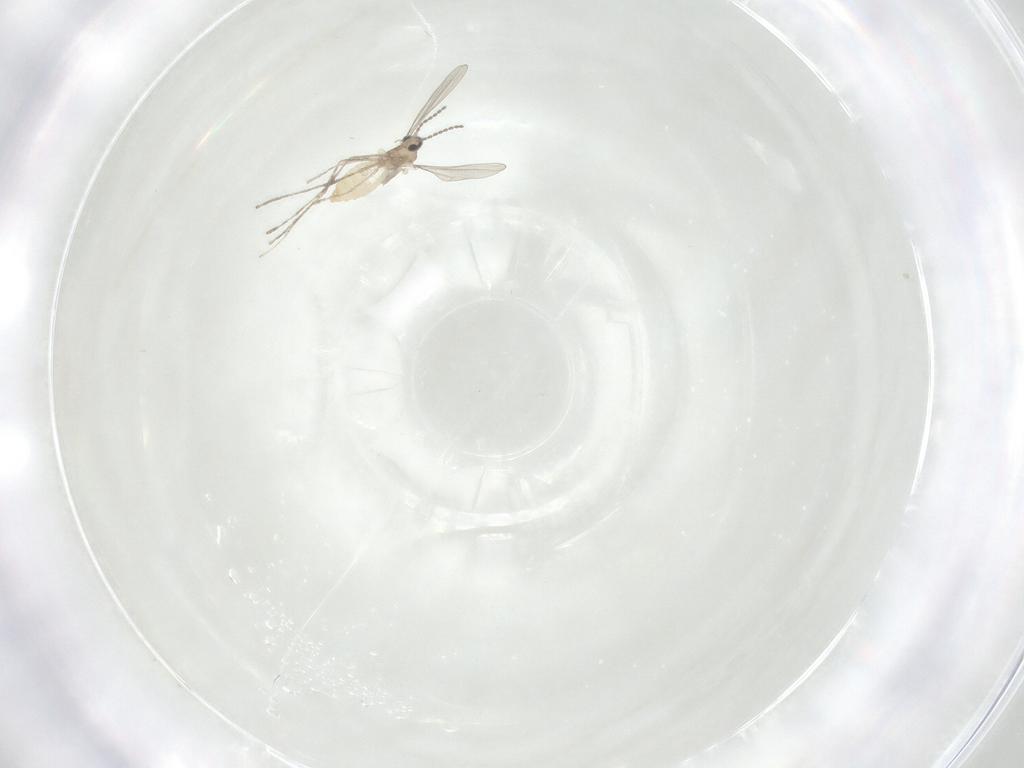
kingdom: Animalia
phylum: Arthropoda
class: Insecta
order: Diptera
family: Cecidomyiidae
